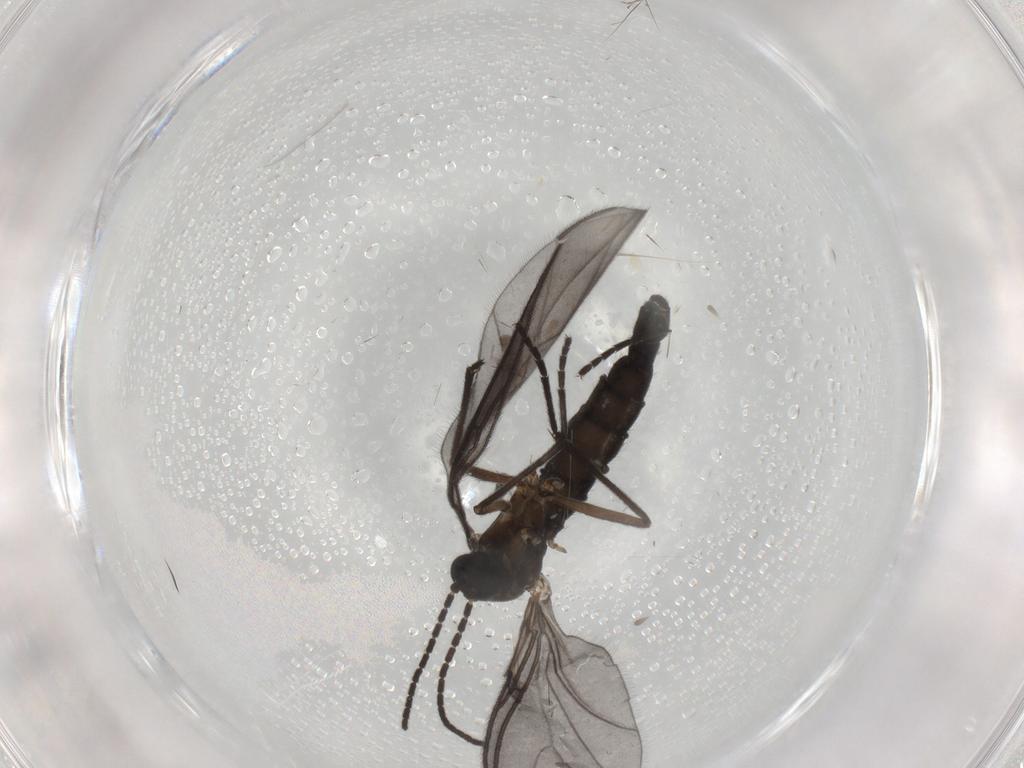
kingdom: Animalia
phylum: Arthropoda
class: Insecta
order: Diptera
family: Sciaridae
